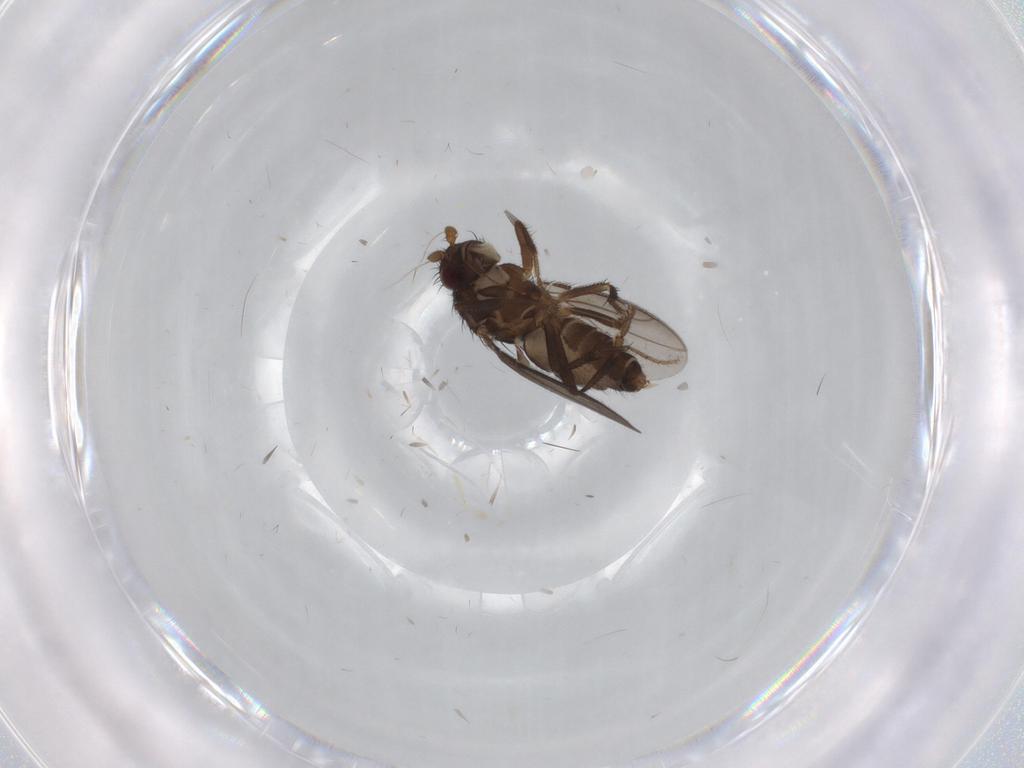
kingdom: Animalia
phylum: Arthropoda
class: Insecta
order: Diptera
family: Sphaeroceridae
